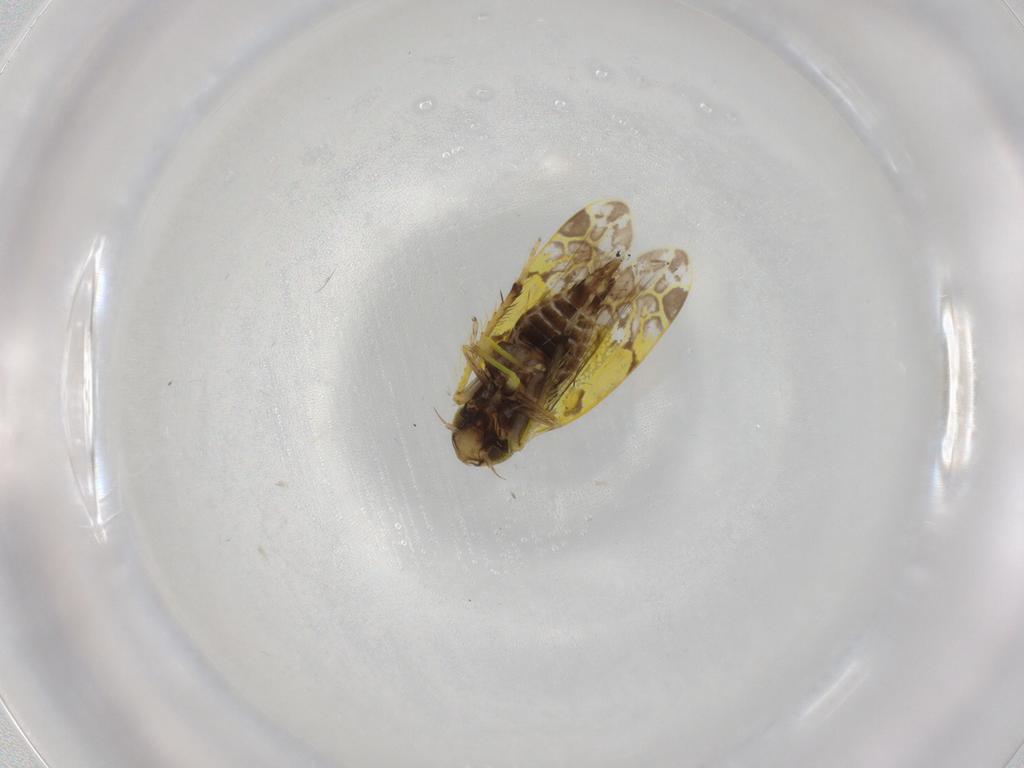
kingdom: Animalia
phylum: Arthropoda
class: Insecta
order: Hemiptera
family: Cicadellidae
